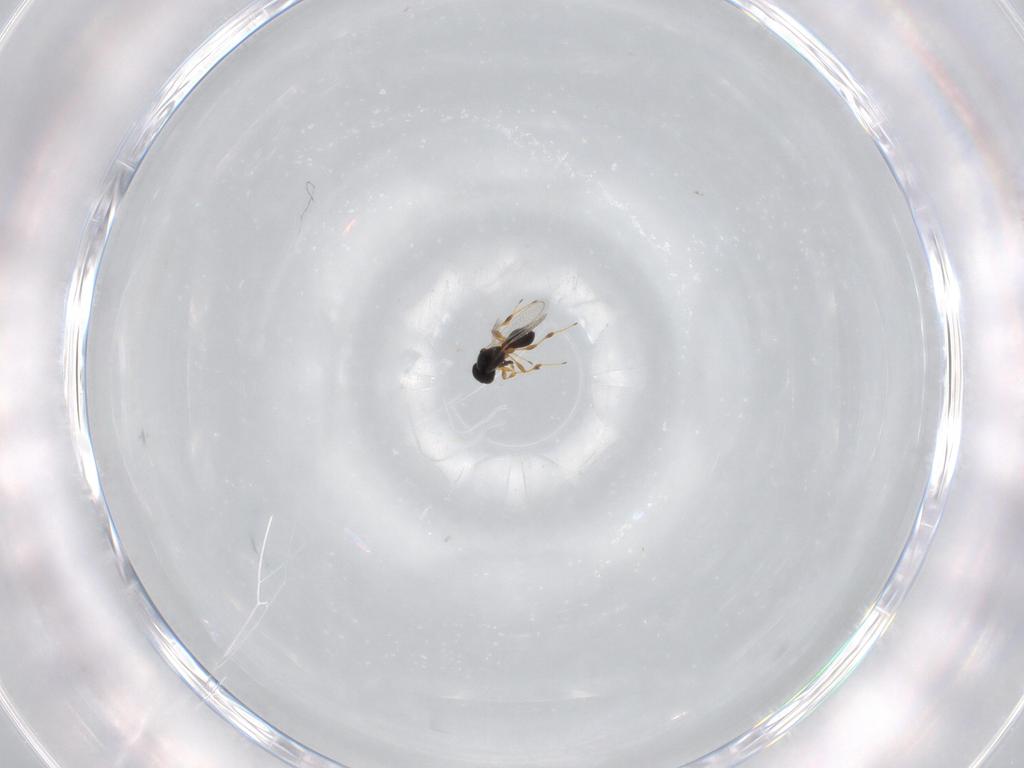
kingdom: Animalia
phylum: Arthropoda
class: Insecta
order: Hymenoptera
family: Platygastridae
